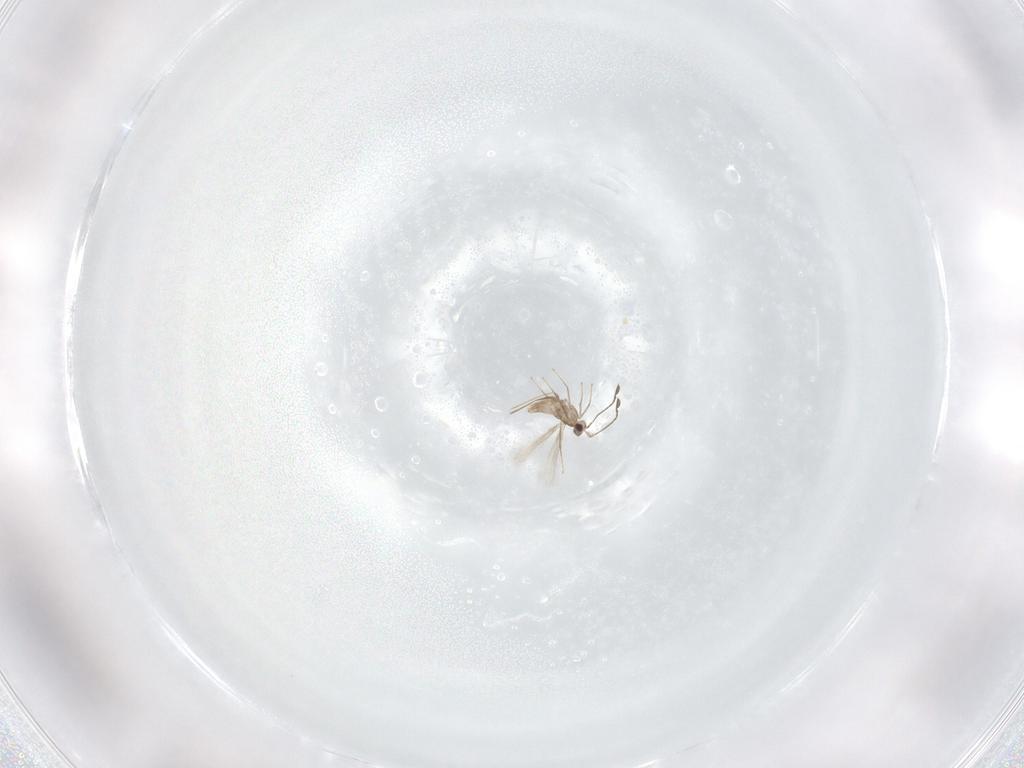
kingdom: Animalia
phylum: Arthropoda
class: Insecta
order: Hymenoptera
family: Mymaridae
